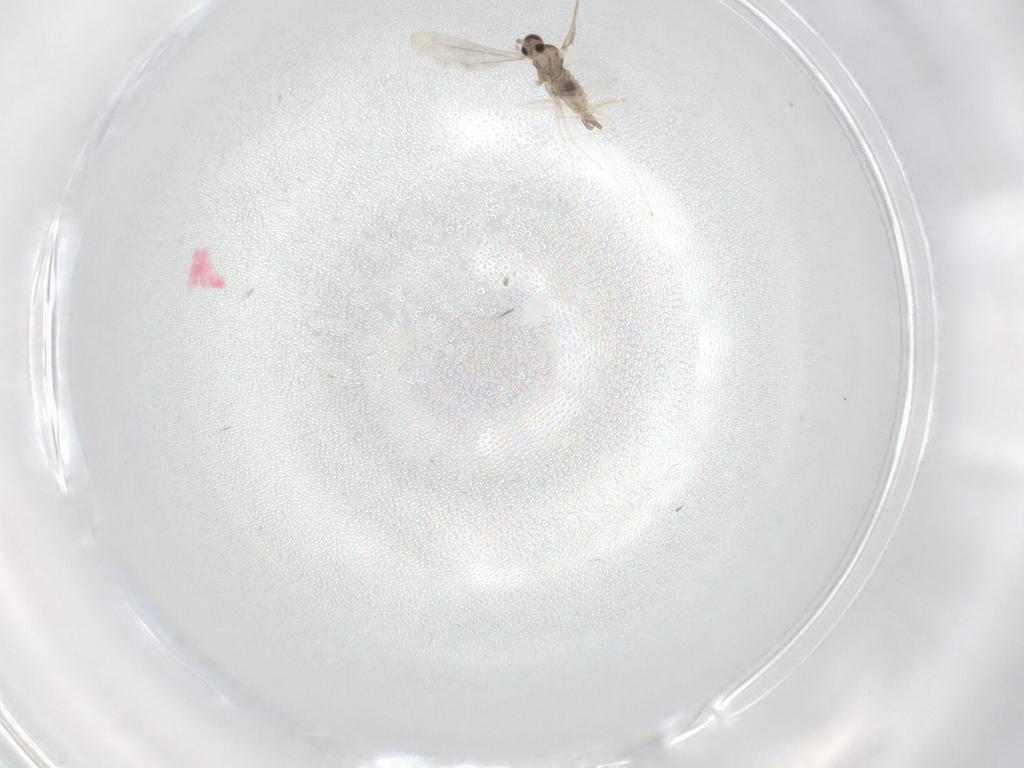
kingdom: Animalia
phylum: Arthropoda
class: Insecta
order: Diptera
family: Cecidomyiidae
